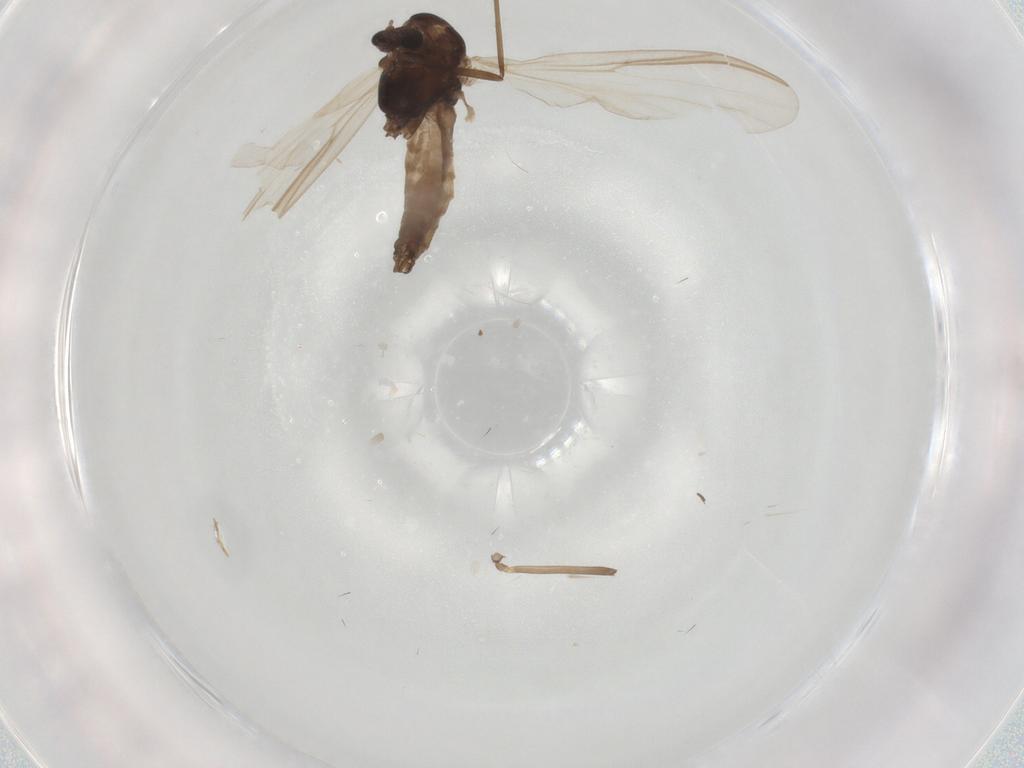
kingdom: Animalia
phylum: Arthropoda
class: Insecta
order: Diptera
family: Chironomidae
